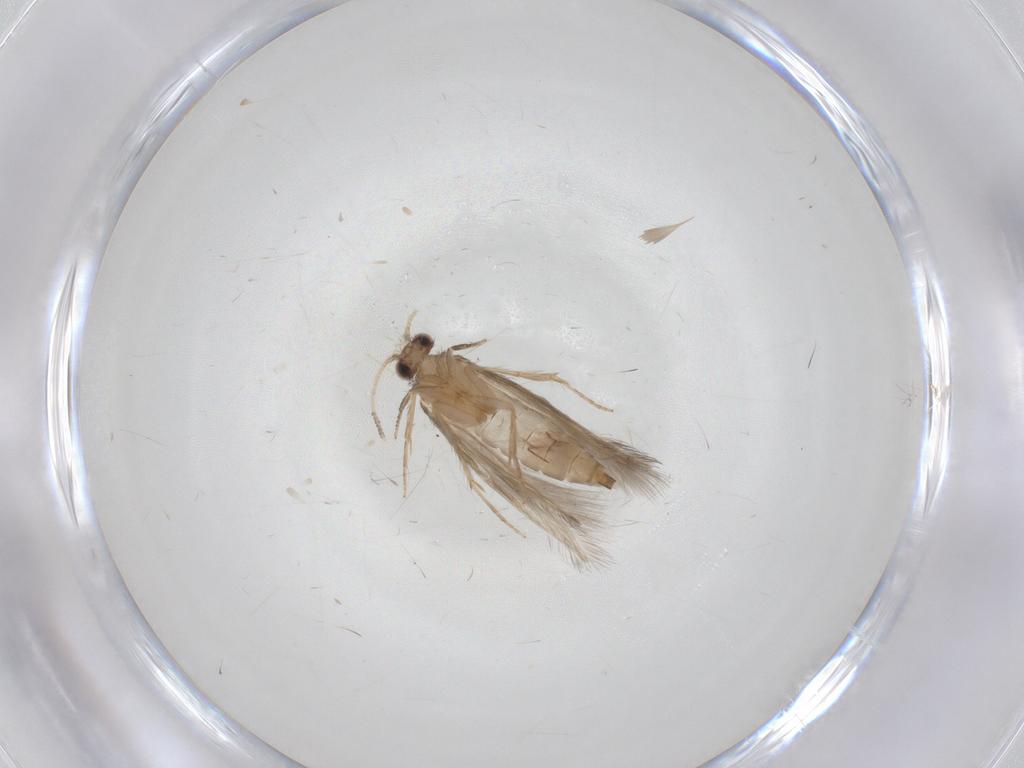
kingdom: Animalia
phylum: Arthropoda
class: Insecta
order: Trichoptera
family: Hydroptilidae
